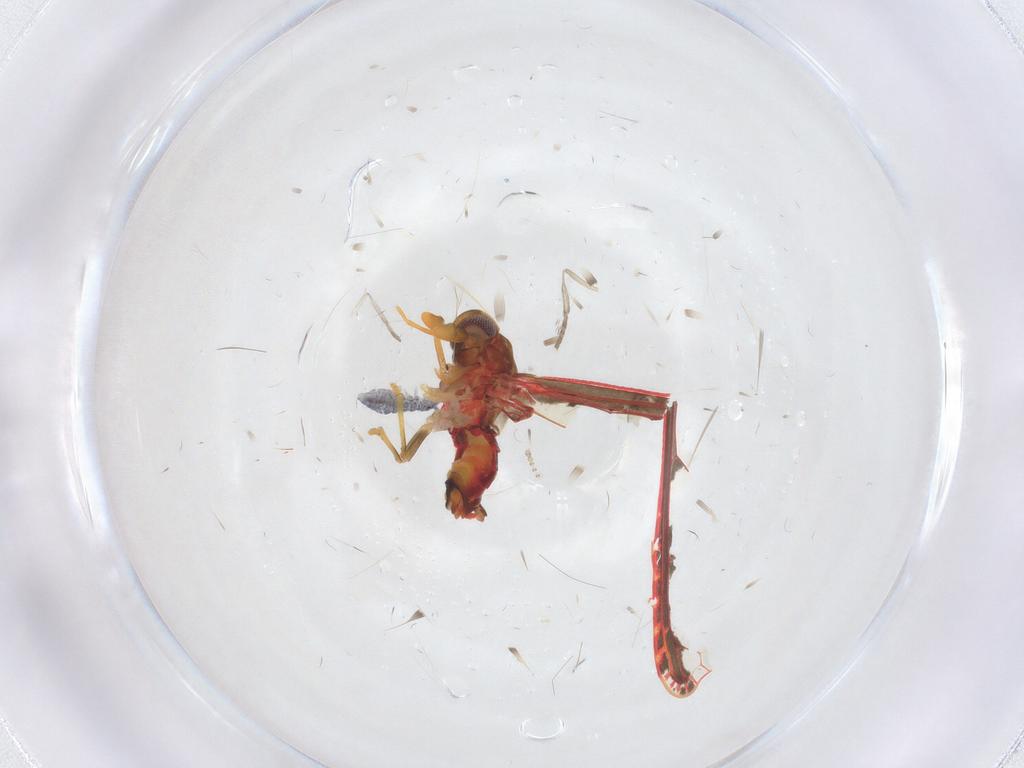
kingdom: Animalia
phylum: Arthropoda
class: Insecta
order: Hemiptera
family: Derbidae
